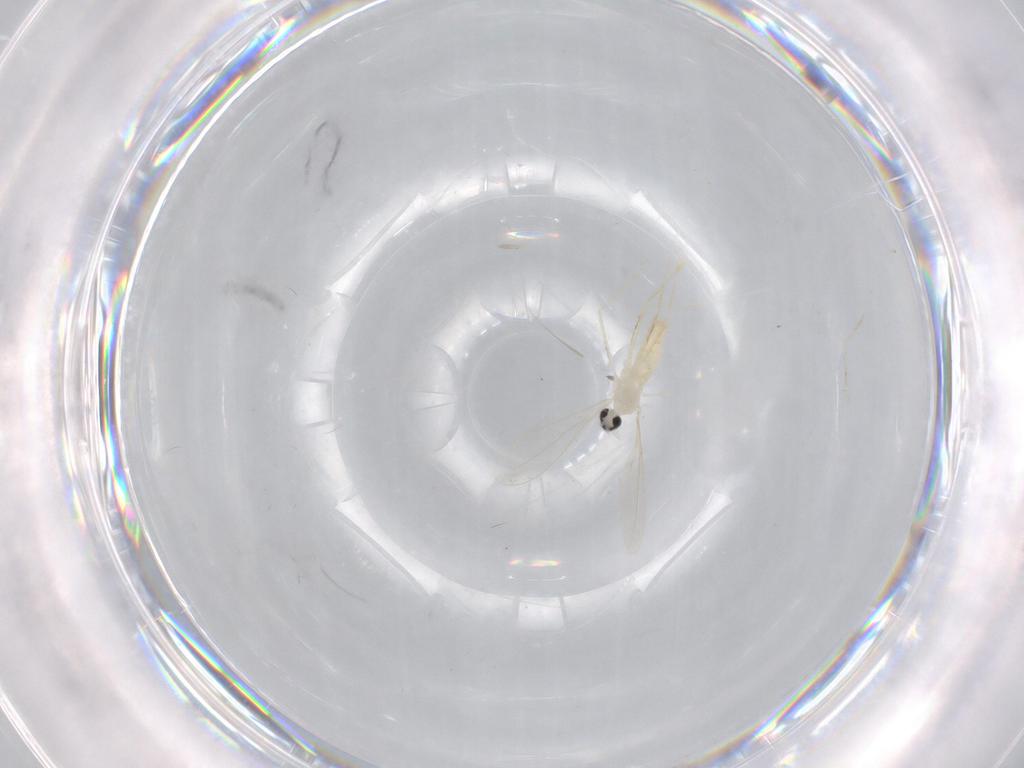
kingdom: Animalia
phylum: Arthropoda
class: Insecta
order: Diptera
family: Cecidomyiidae
